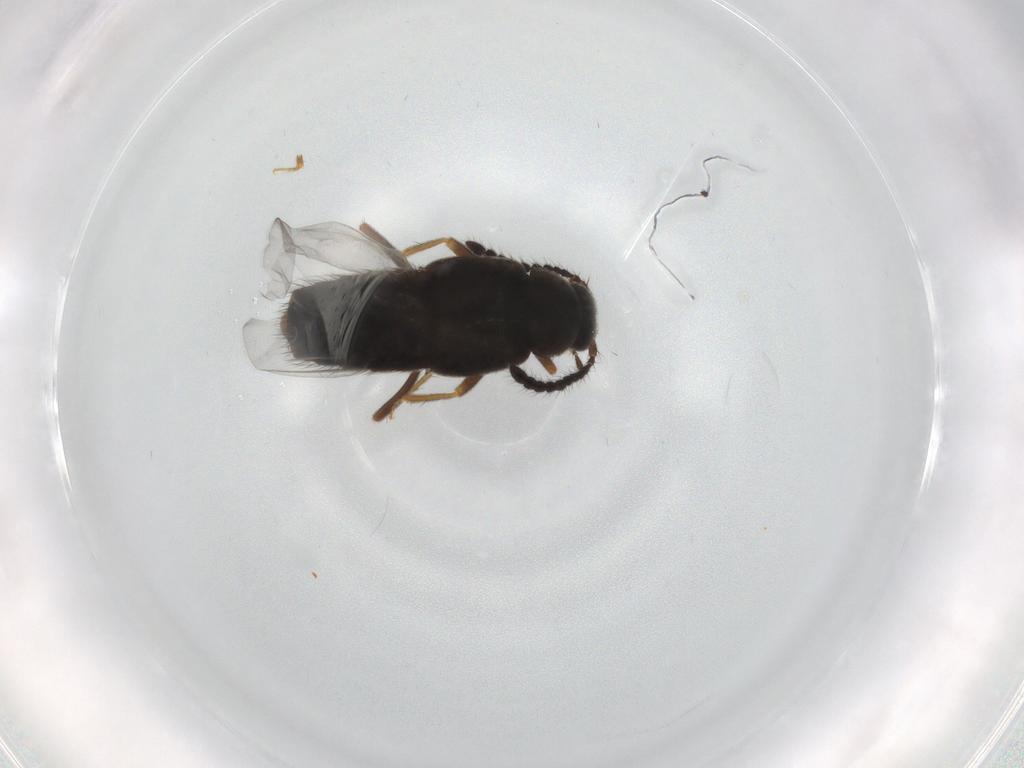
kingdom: Animalia
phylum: Arthropoda
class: Insecta
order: Coleoptera
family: Staphylinidae
